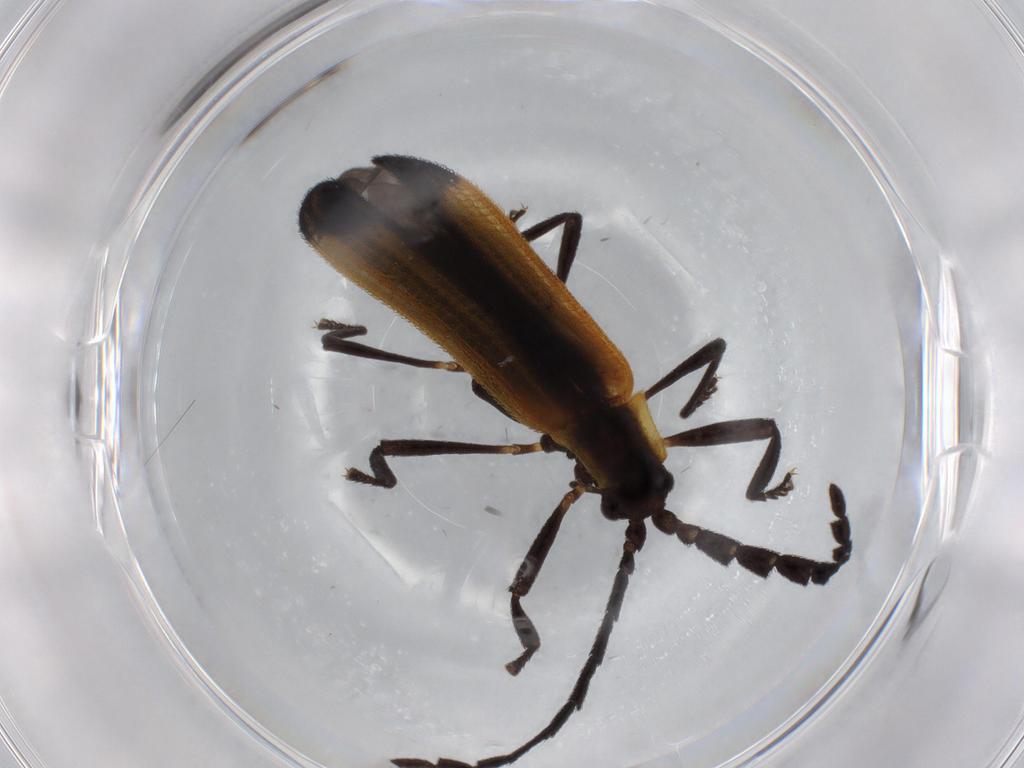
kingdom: Animalia
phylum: Arthropoda
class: Insecta
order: Coleoptera
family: Lycidae
